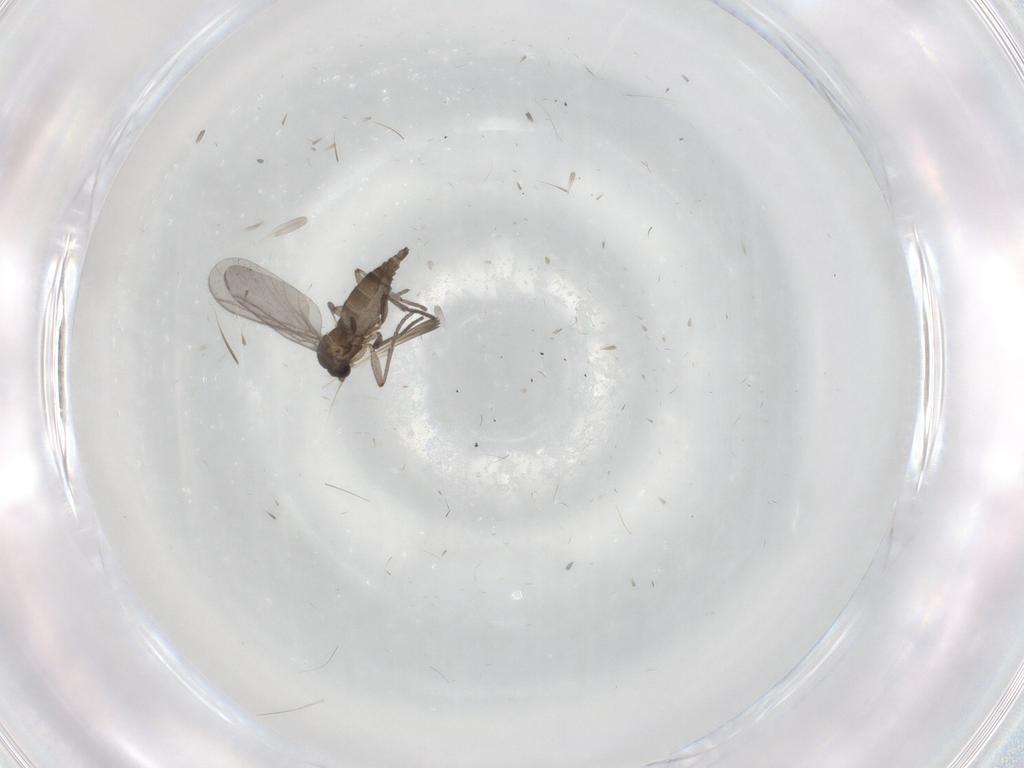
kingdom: Animalia
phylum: Arthropoda
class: Insecta
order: Diptera
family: Sciaridae
